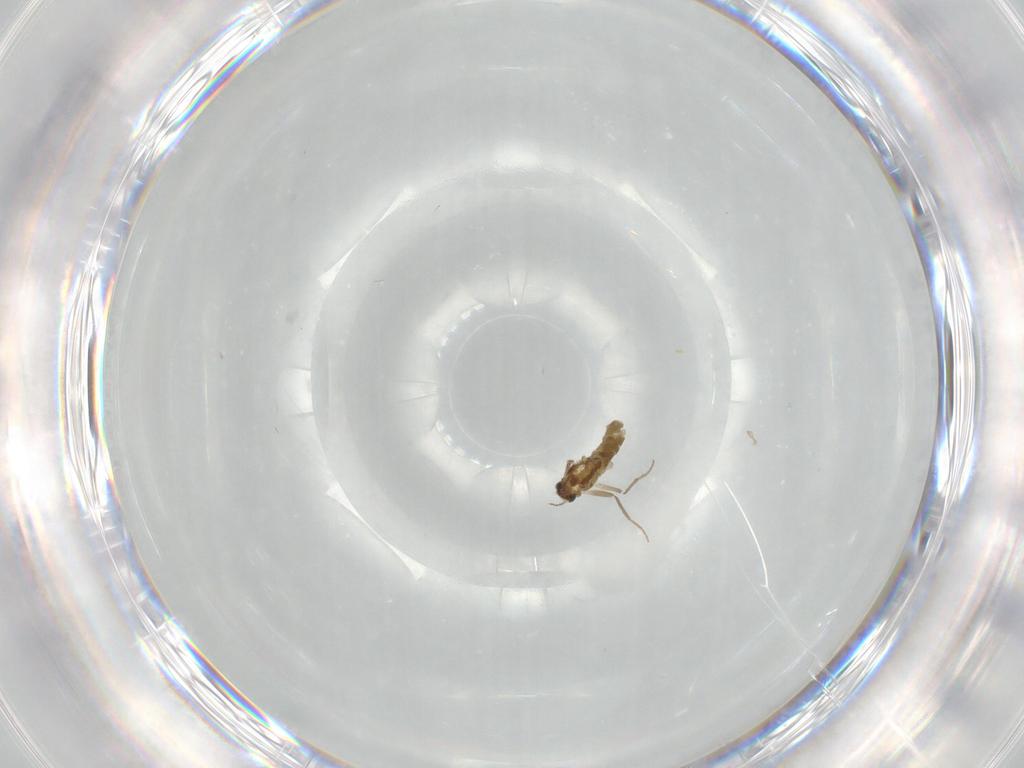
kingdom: Animalia
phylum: Arthropoda
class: Insecta
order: Diptera
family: Chironomidae
